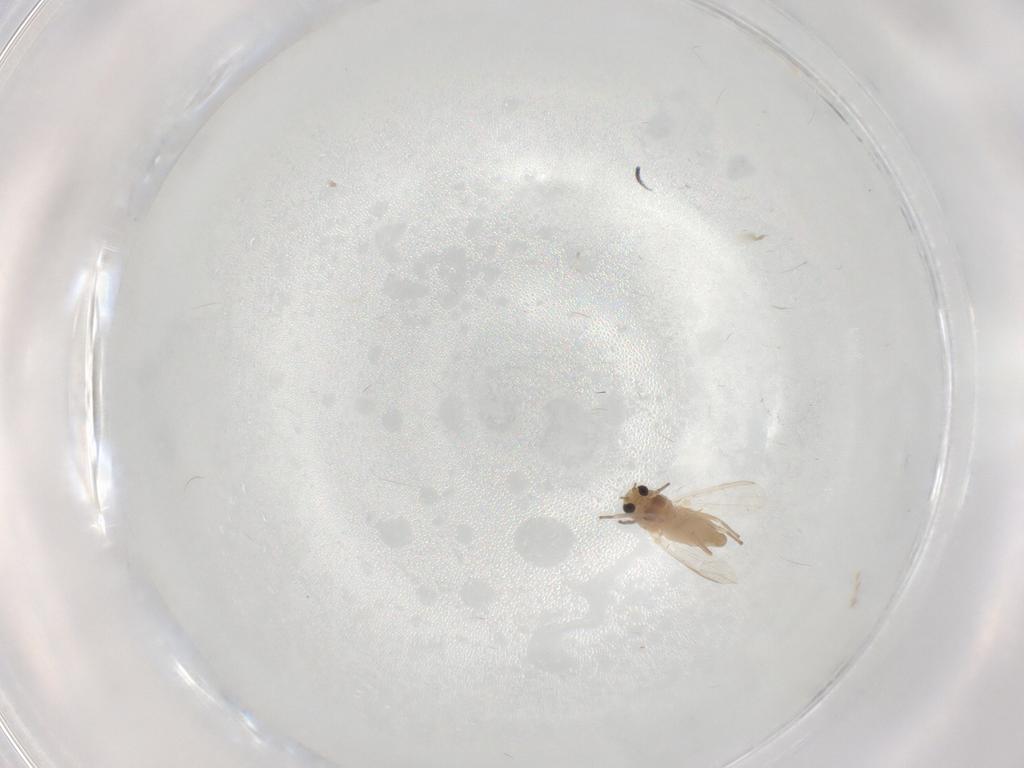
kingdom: Animalia
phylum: Arthropoda
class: Insecta
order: Diptera
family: Chironomidae
